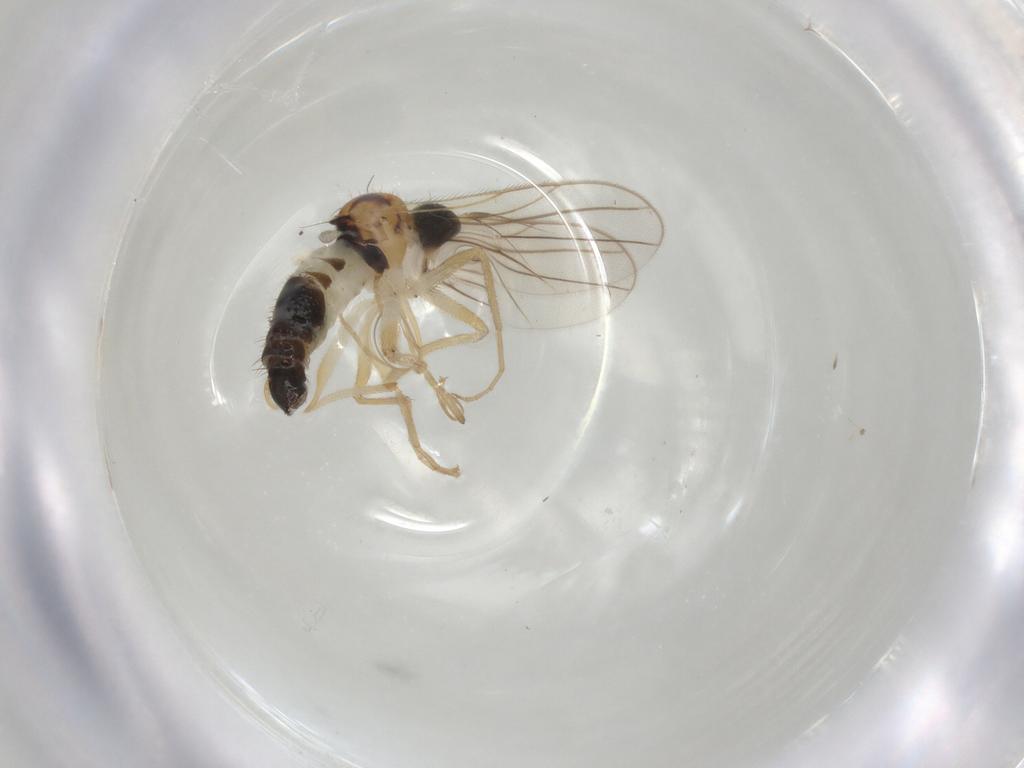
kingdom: Animalia
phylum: Arthropoda
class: Insecta
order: Diptera
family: Hybotidae
